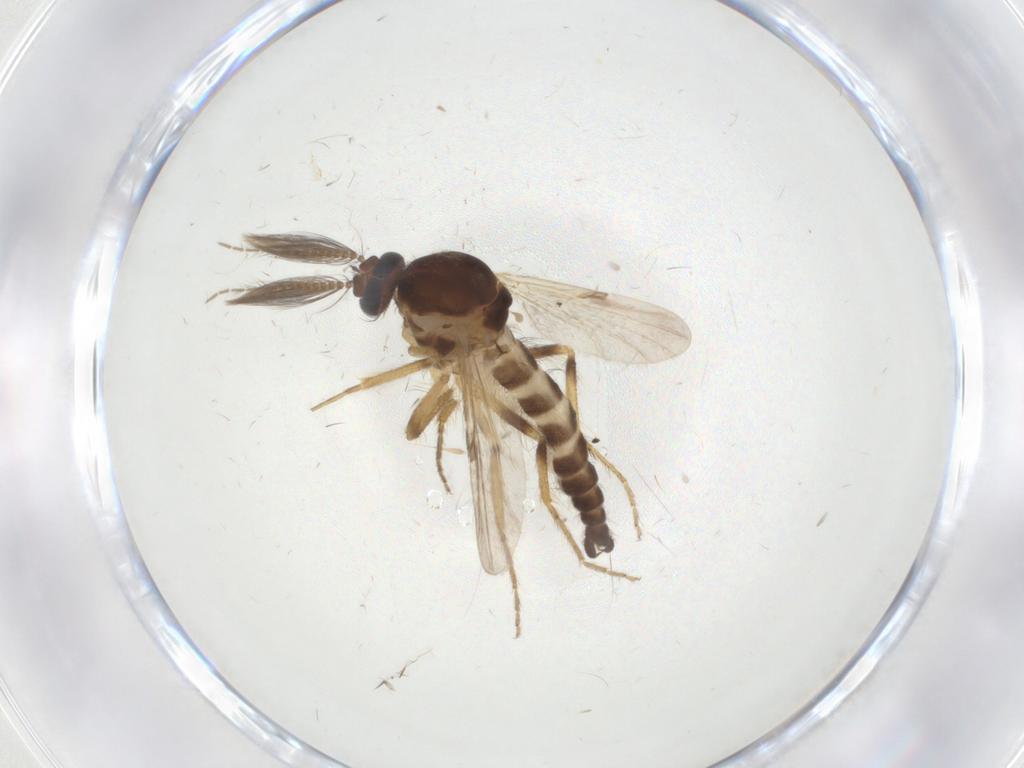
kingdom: Animalia
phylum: Arthropoda
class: Insecta
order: Diptera
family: Ceratopogonidae
